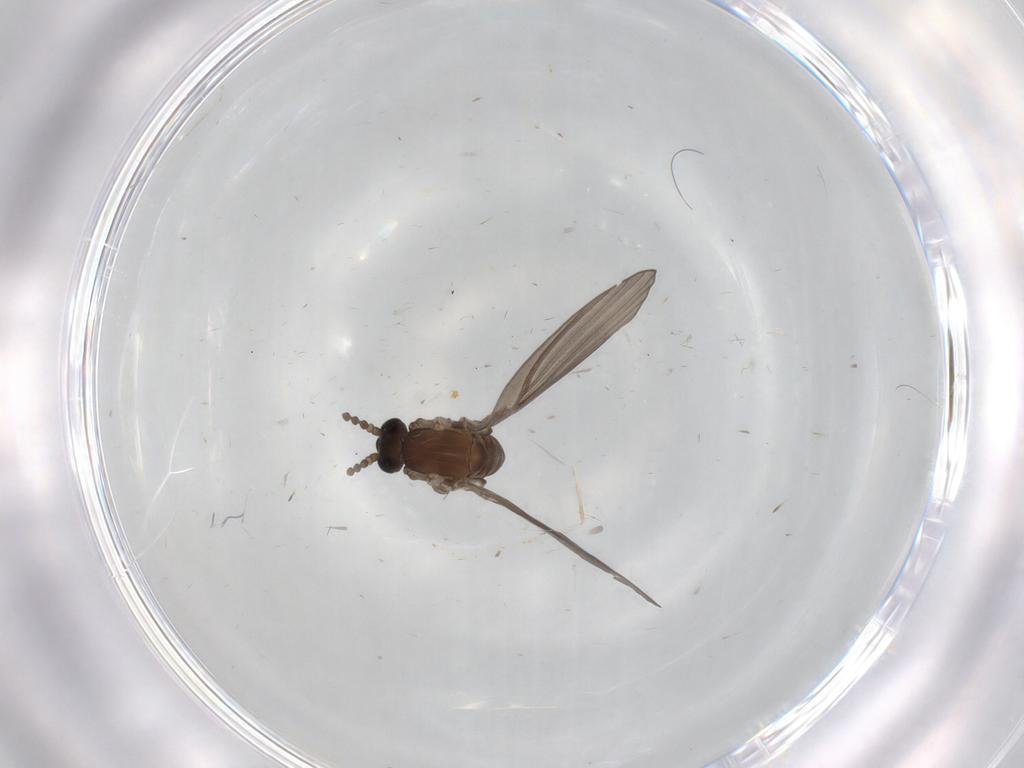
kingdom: Animalia
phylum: Arthropoda
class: Insecta
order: Diptera
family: Psychodidae
